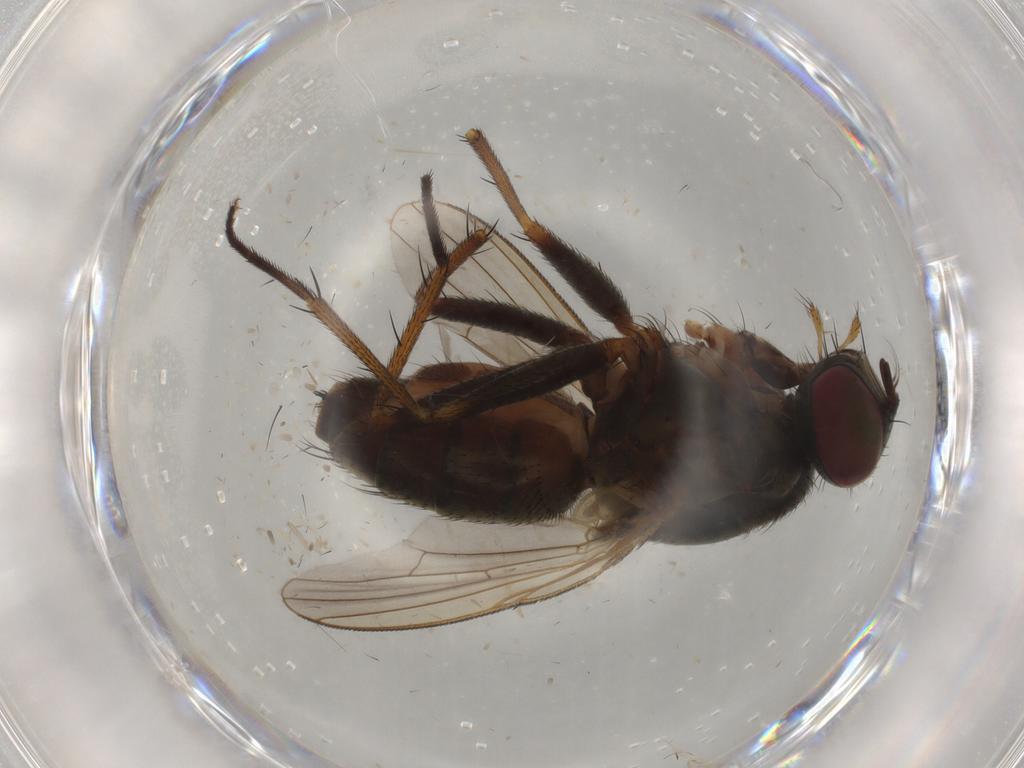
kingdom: Animalia
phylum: Arthropoda
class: Insecta
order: Diptera
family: Muscidae
